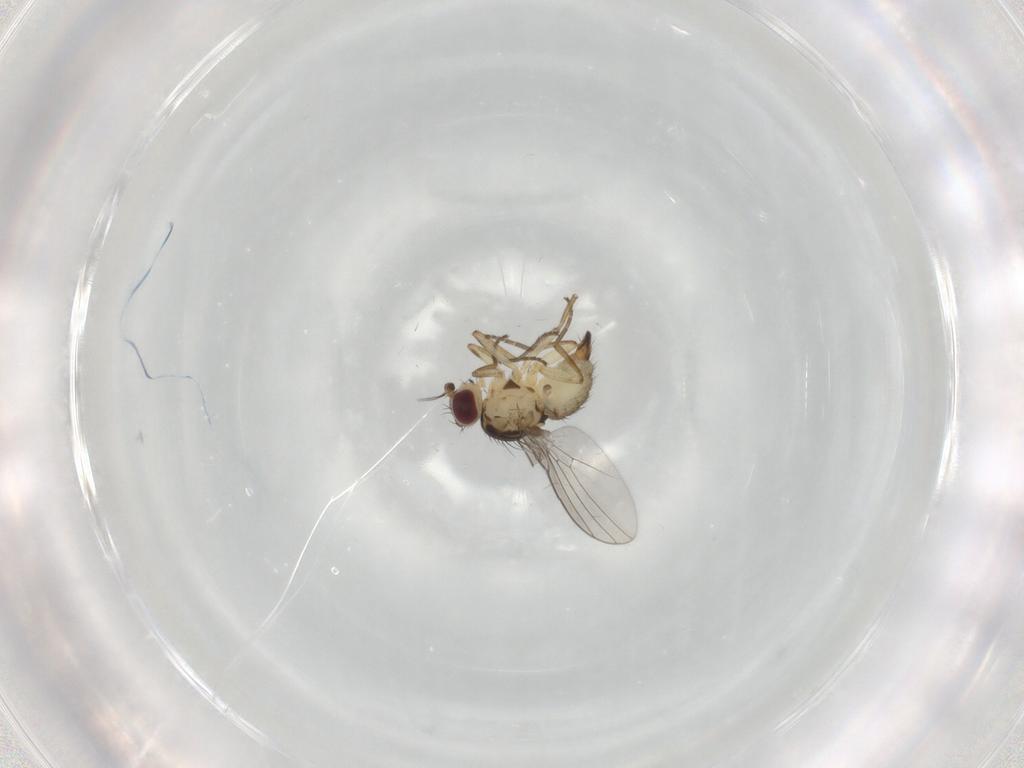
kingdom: Animalia
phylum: Arthropoda
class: Insecta
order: Diptera
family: Agromyzidae
